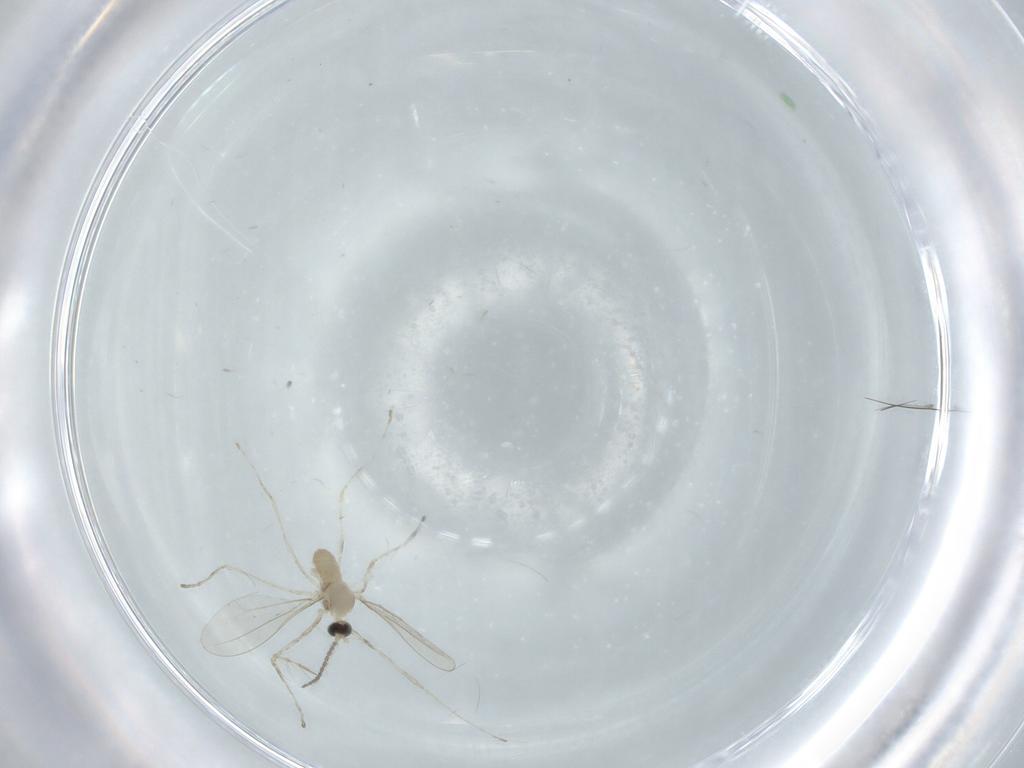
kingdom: Animalia
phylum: Arthropoda
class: Insecta
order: Diptera
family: Cecidomyiidae
